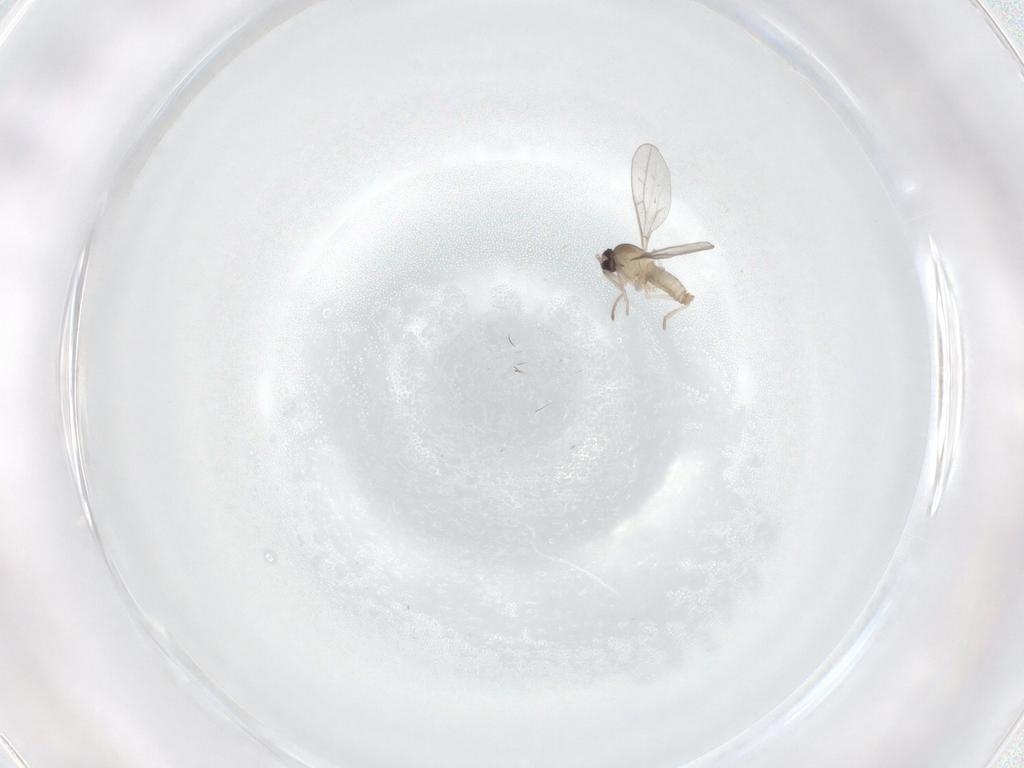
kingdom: Animalia
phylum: Arthropoda
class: Insecta
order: Diptera
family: Cecidomyiidae
